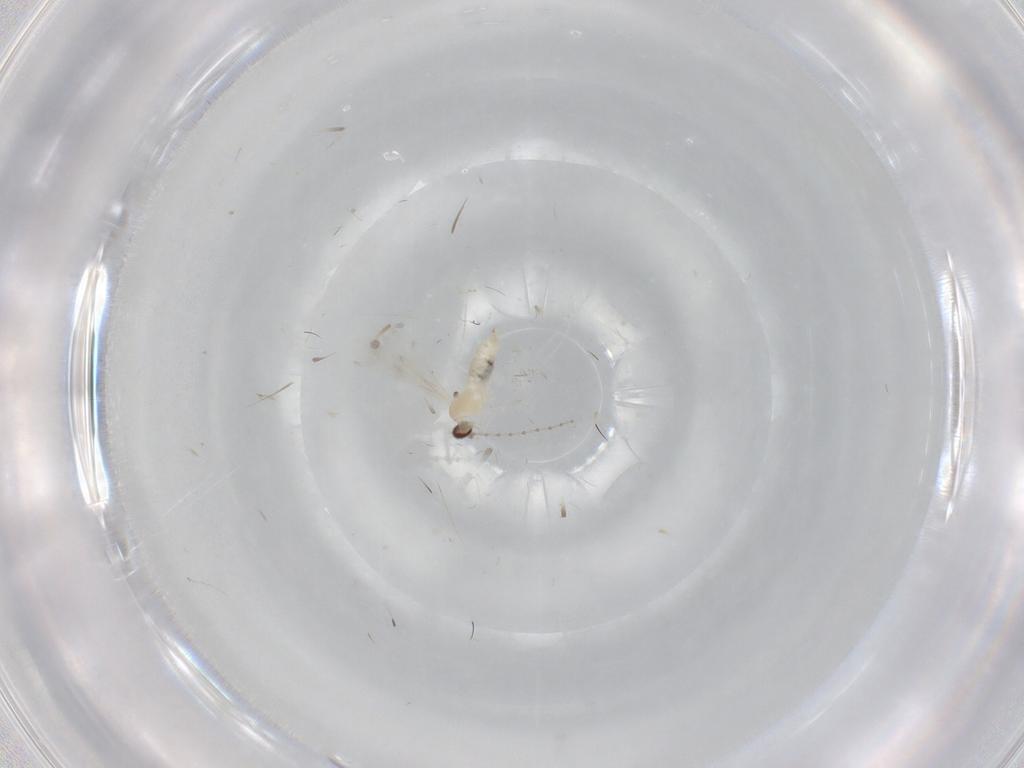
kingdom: Animalia
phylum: Arthropoda
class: Insecta
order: Diptera
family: Cecidomyiidae
